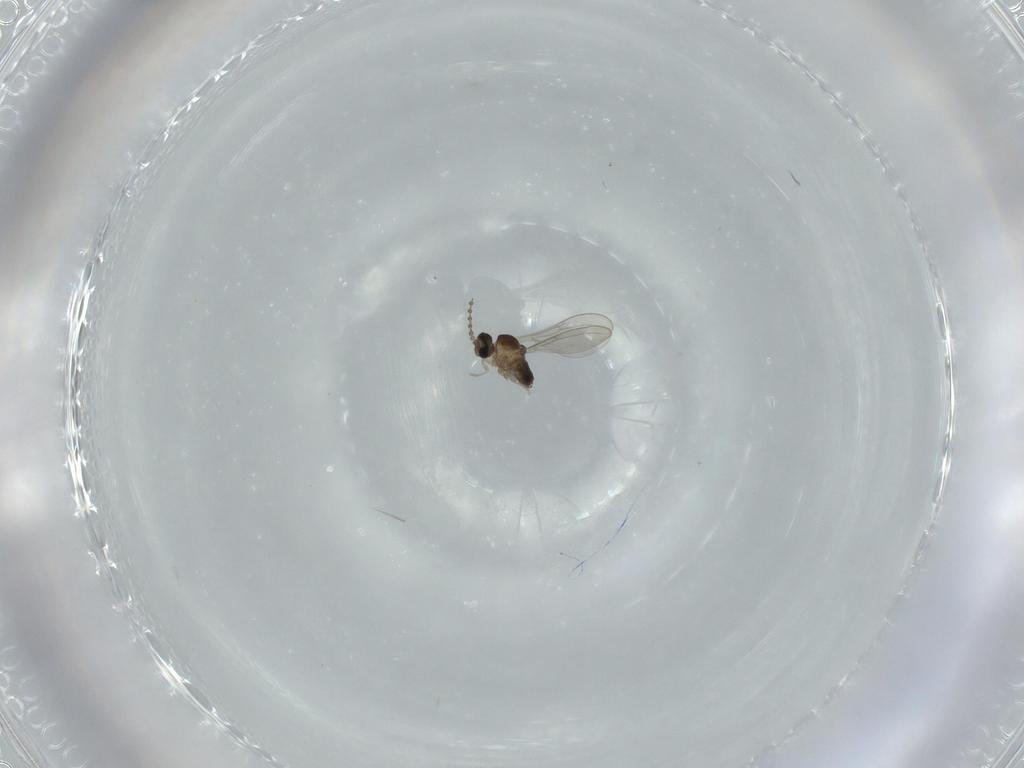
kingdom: Animalia
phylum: Arthropoda
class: Insecta
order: Diptera
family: Cecidomyiidae
